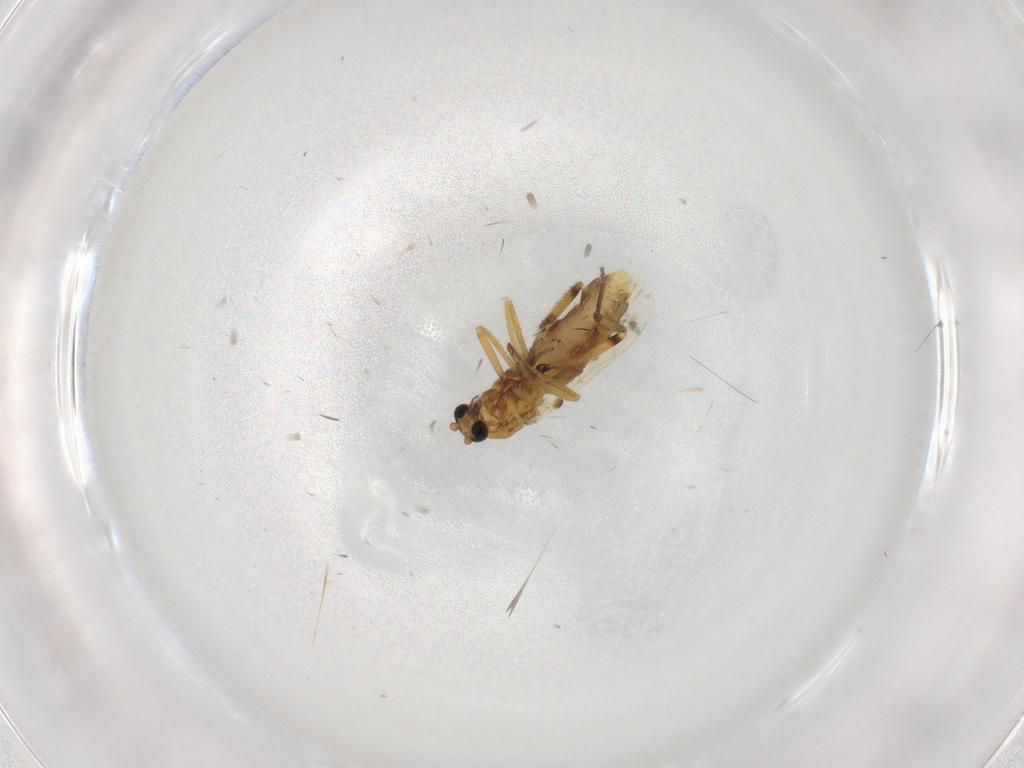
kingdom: Animalia
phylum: Arthropoda
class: Insecta
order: Diptera
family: Ceratopogonidae
